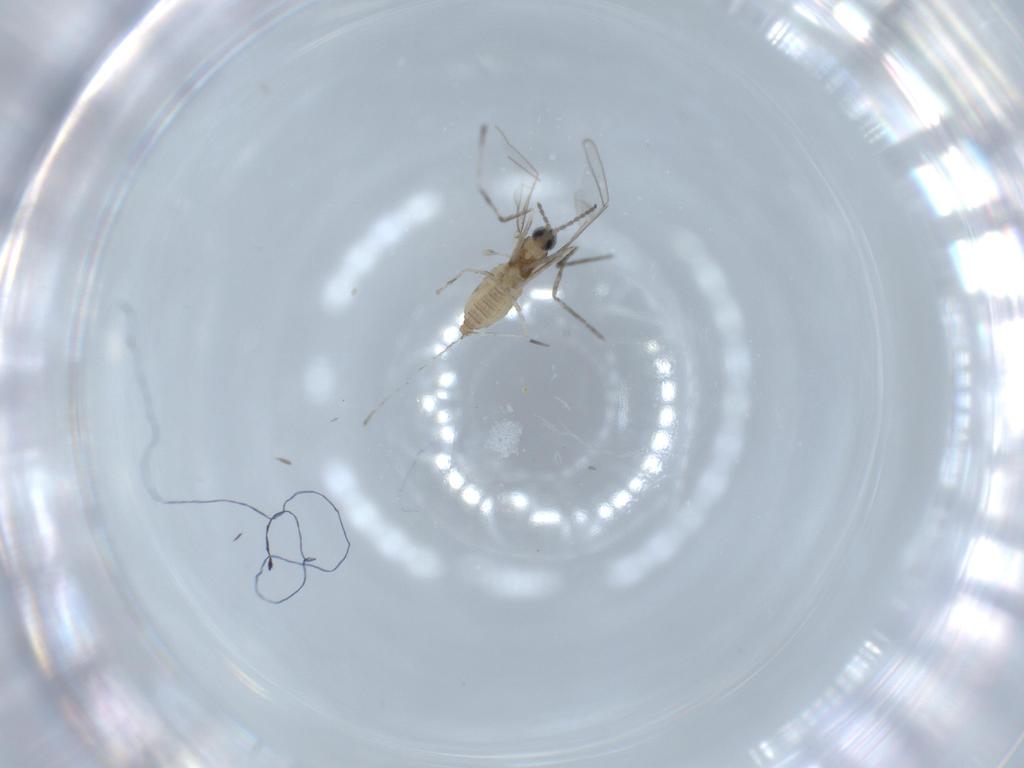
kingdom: Animalia
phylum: Arthropoda
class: Insecta
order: Diptera
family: Cecidomyiidae
